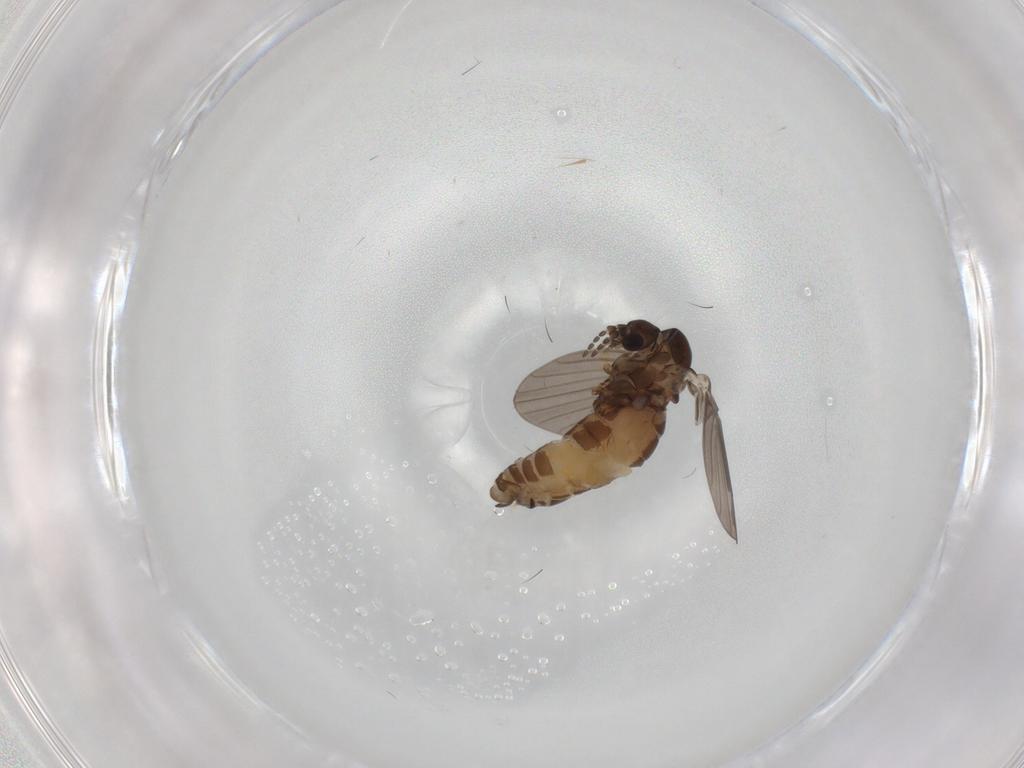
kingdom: Animalia
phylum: Arthropoda
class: Insecta
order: Diptera
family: Psychodidae
